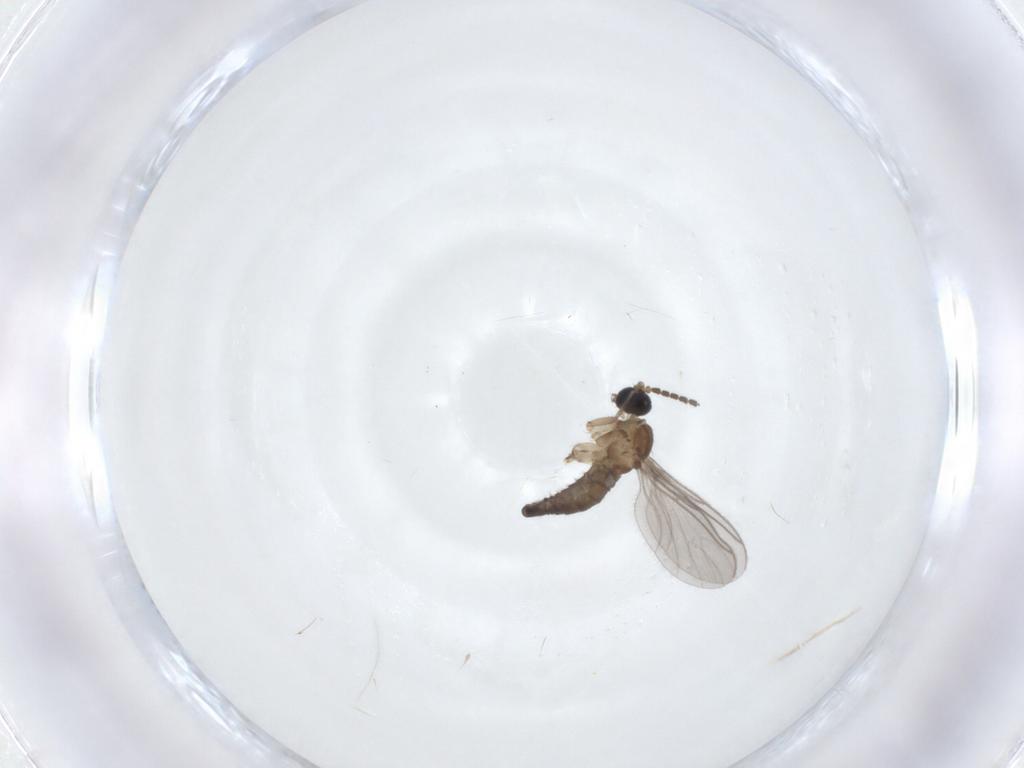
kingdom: Animalia
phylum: Arthropoda
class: Insecta
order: Diptera
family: Sciaridae
